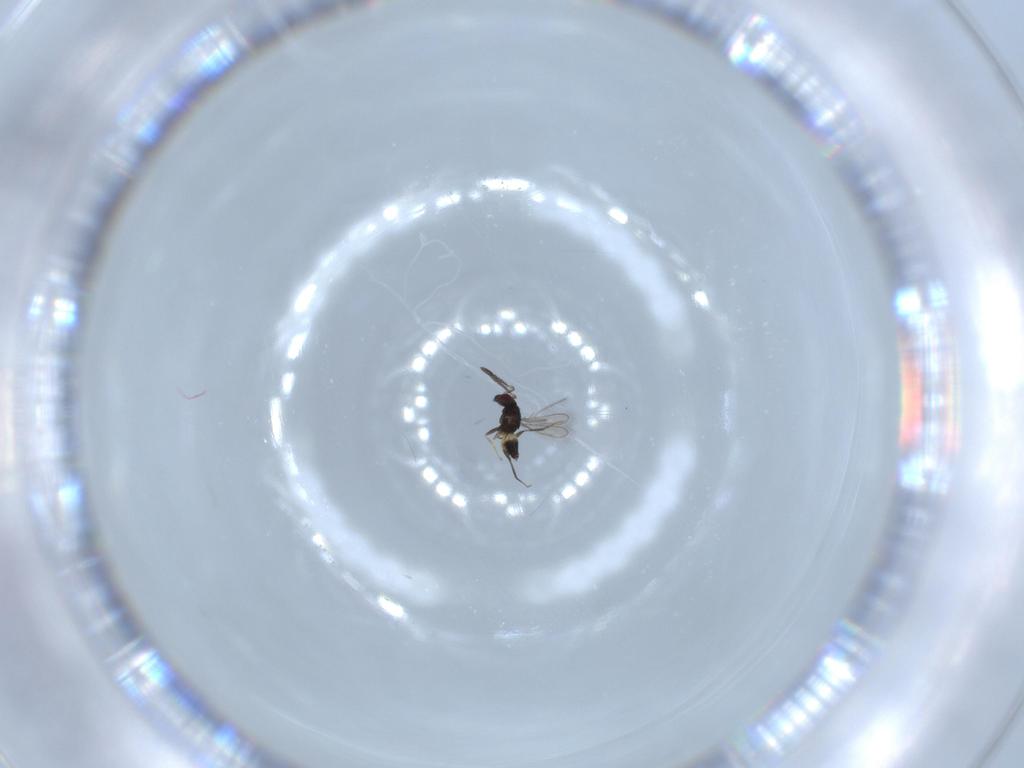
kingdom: Animalia
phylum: Arthropoda
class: Insecta
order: Hymenoptera
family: Mymaridae
